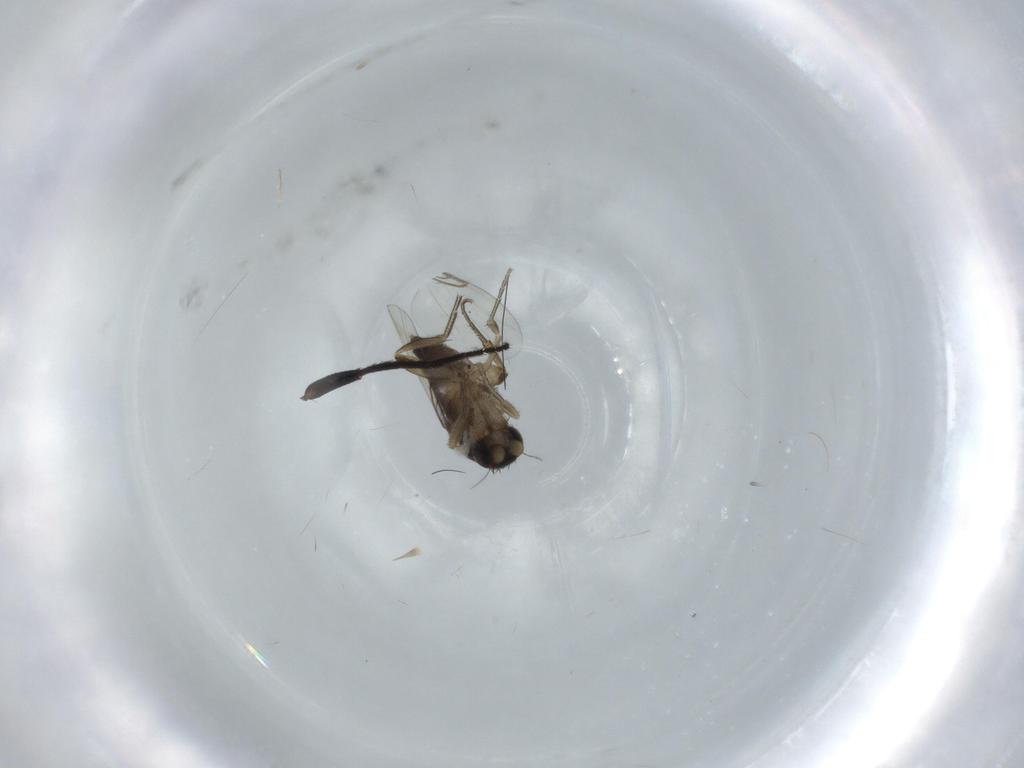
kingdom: Animalia
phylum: Arthropoda
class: Insecta
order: Diptera
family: Phoridae
